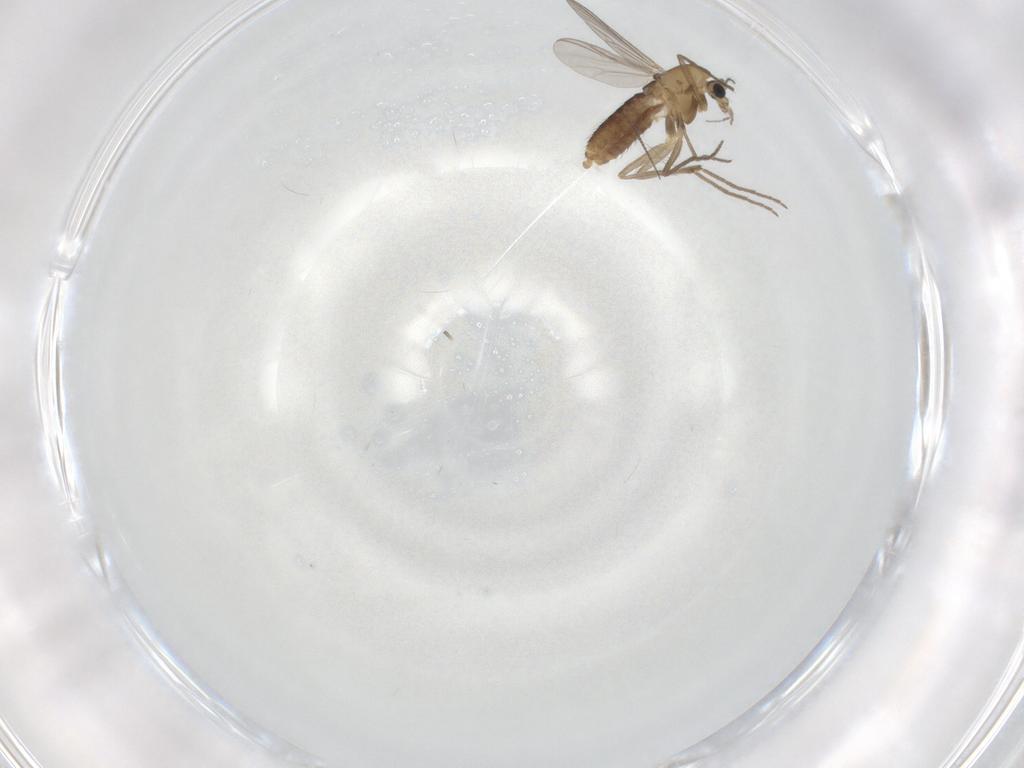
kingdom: Animalia
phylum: Arthropoda
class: Insecta
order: Diptera
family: Chironomidae
